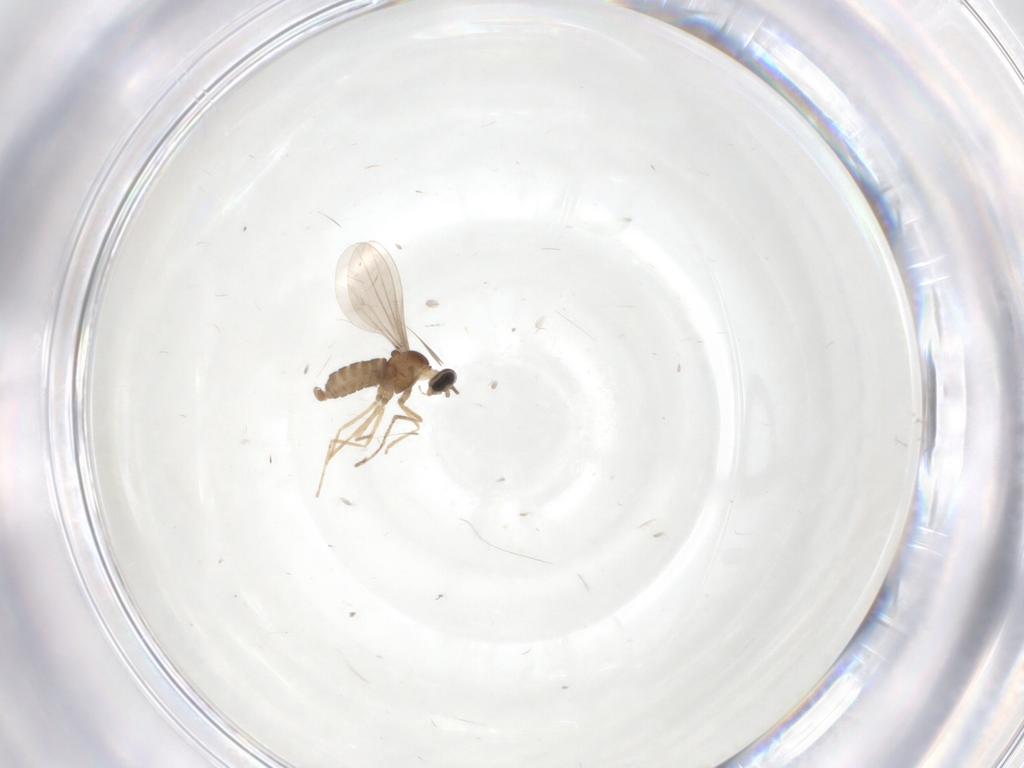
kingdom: Animalia
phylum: Arthropoda
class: Insecta
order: Diptera
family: Cecidomyiidae
